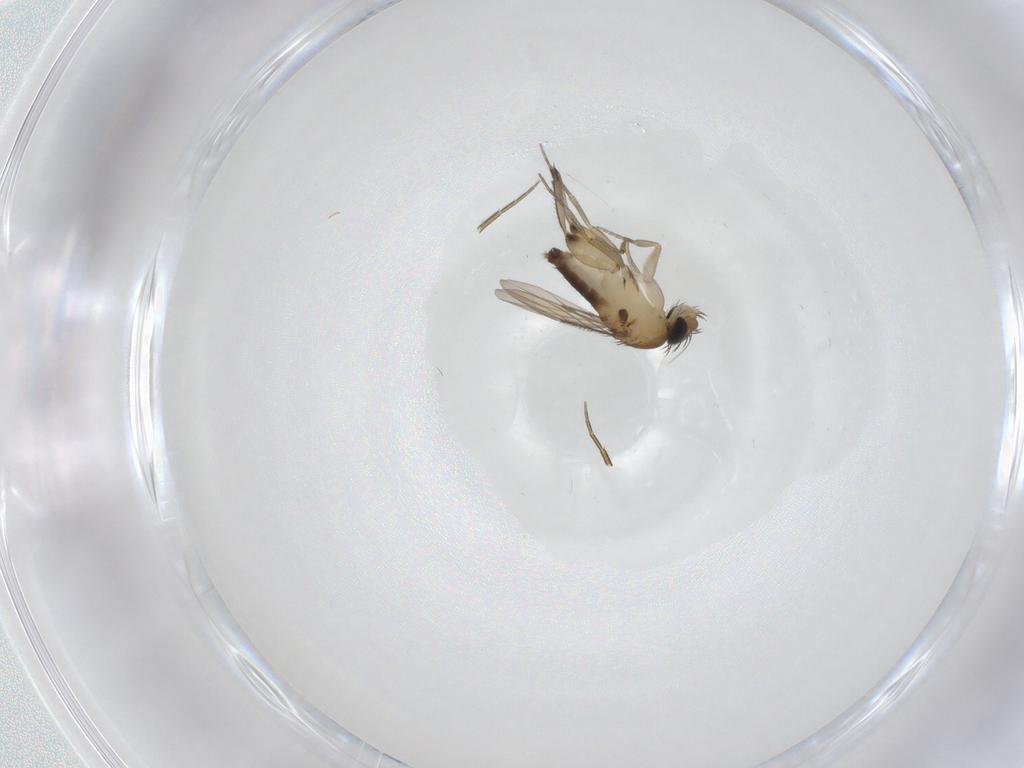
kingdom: Animalia
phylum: Arthropoda
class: Insecta
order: Diptera
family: Phoridae
